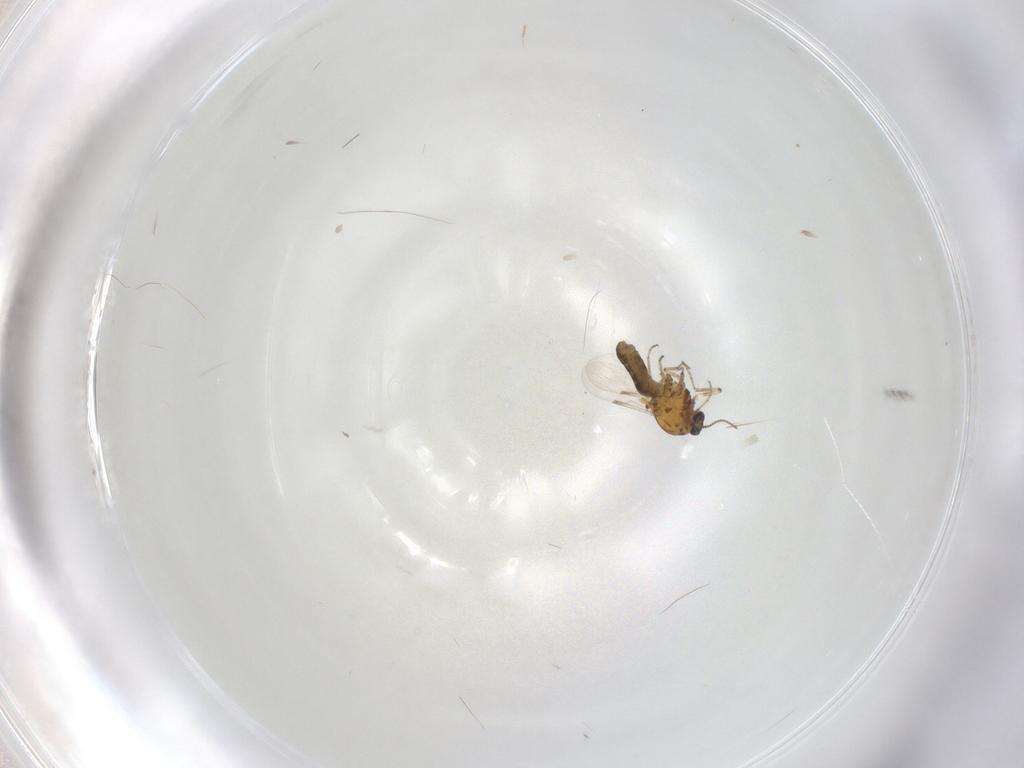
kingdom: Animalia
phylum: Arthropoda
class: Insecta
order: Diptera
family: Ceratopogonidae
